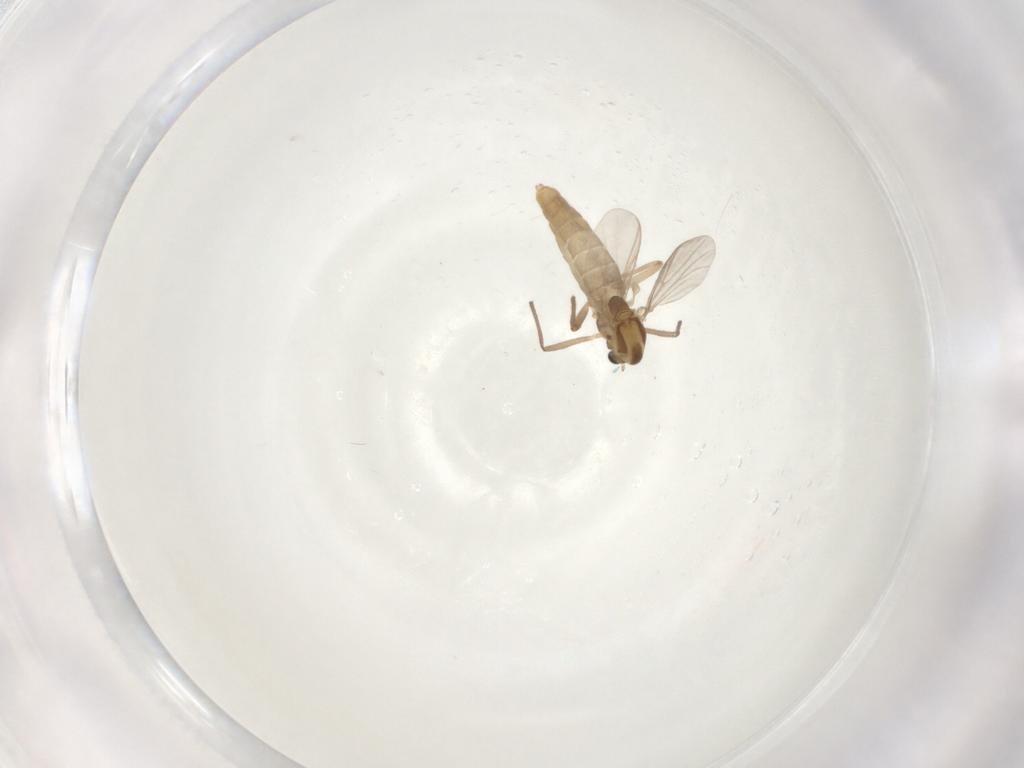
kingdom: Animalia
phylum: Arthropoda
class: Insecta
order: Diptera
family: Chironomidae
